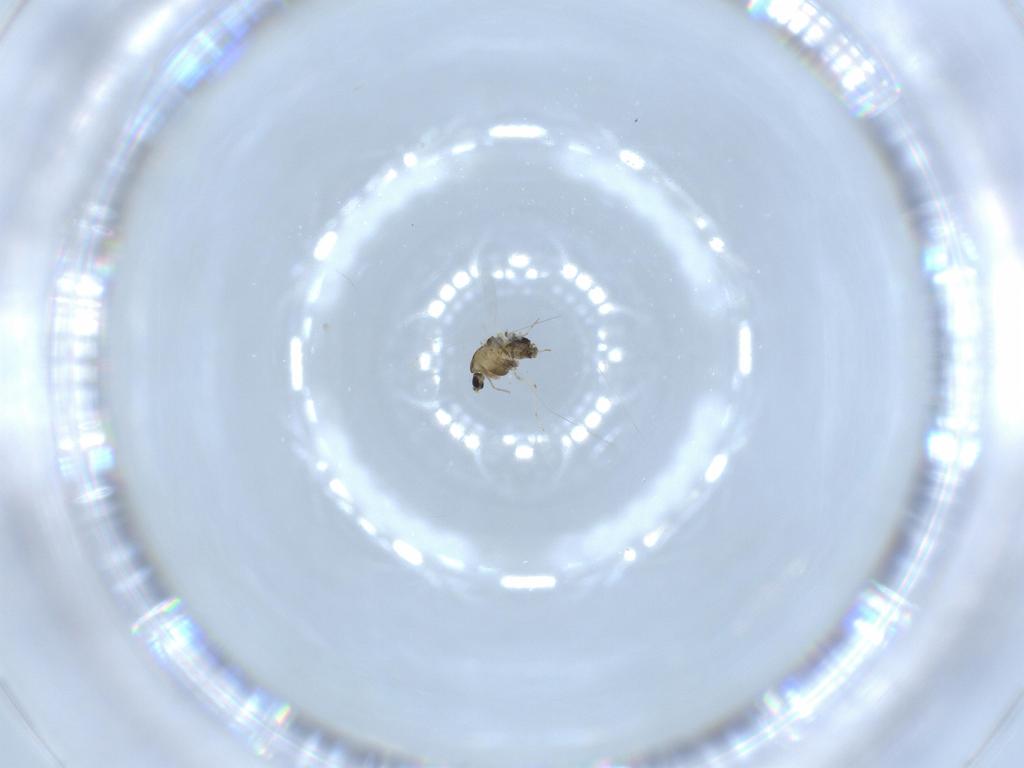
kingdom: Animalia
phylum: Arthropoda
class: Insecta
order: Diptera
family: Chironomidae
